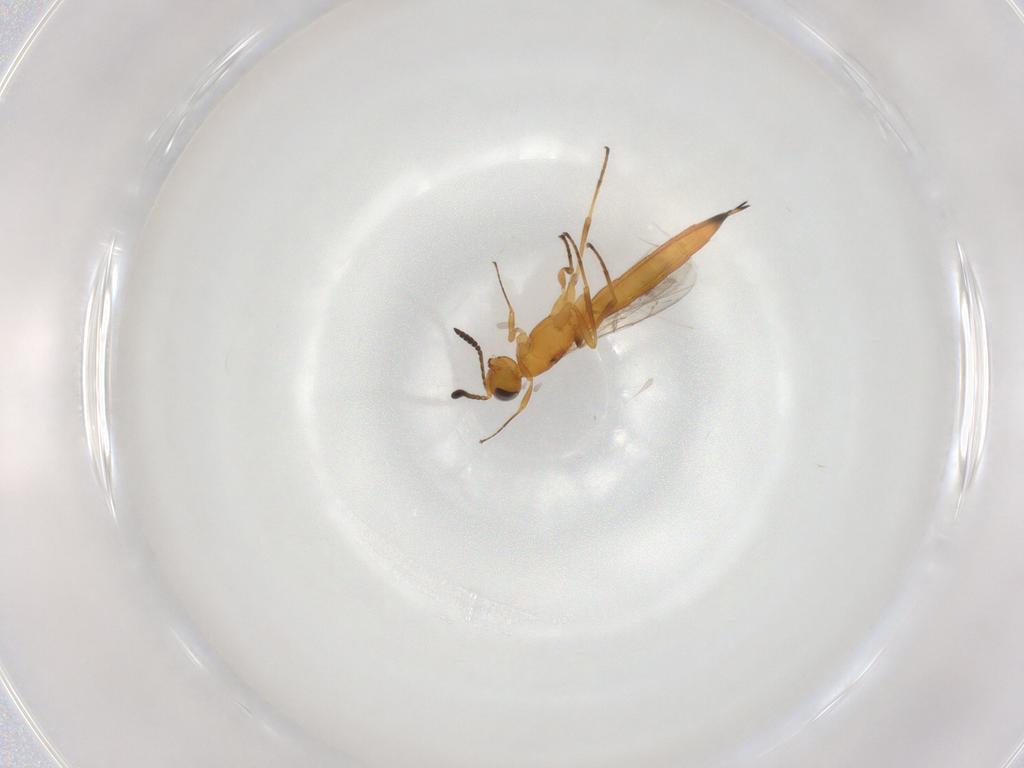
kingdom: Animalia
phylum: Arthropoda
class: Insecta
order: Hymenoptera
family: Scelionidae
